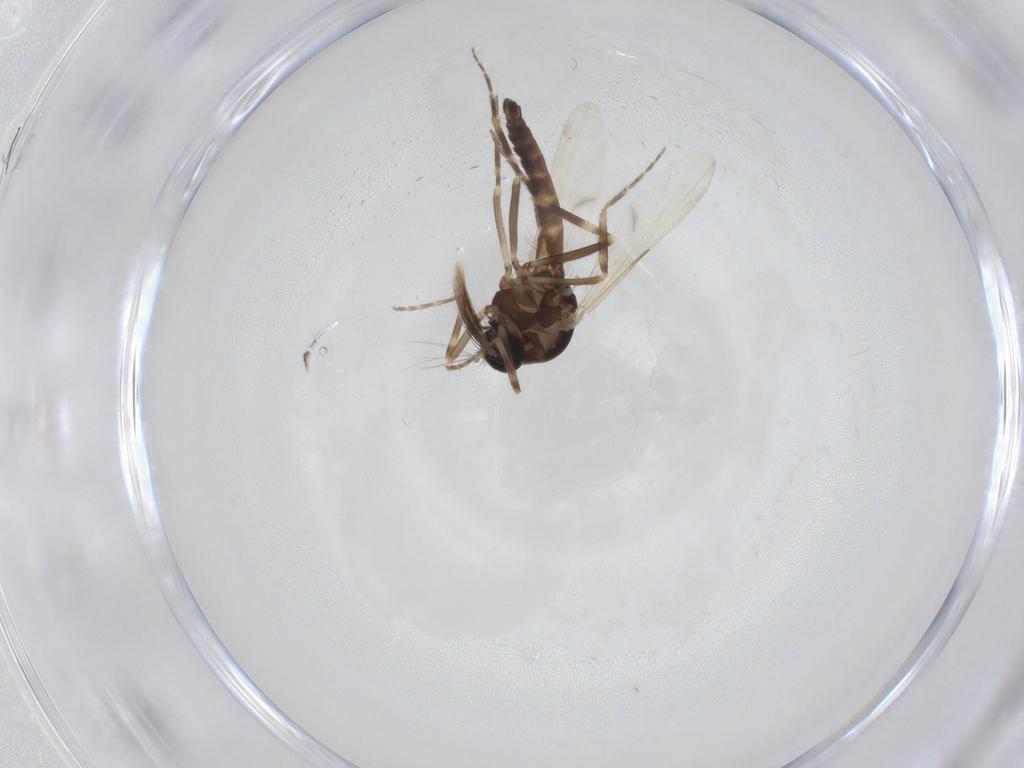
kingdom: Animalia
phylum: Arthropoda
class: Insecta
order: Diptera
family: Ceratopogonidae
